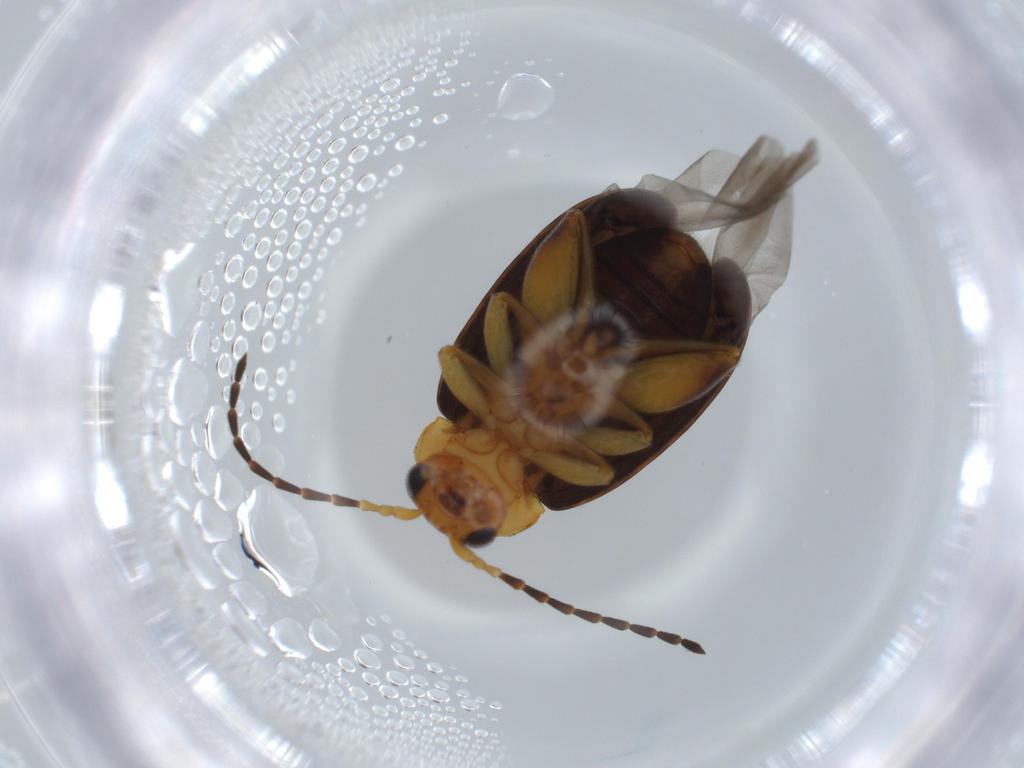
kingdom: Animalia
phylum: Arthropoda
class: Insecta
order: Coleoptera
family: Chrysomelidae
